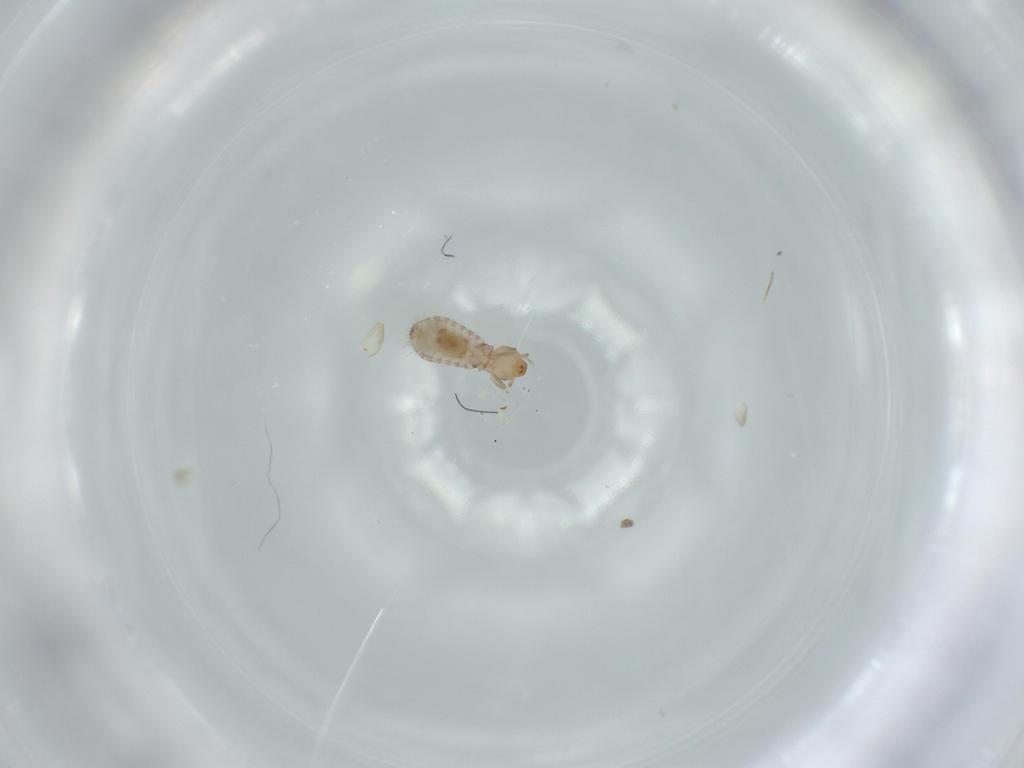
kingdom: Animalia
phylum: Arthropoda
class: Insecta
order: Psocodea
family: Liposcelididae
